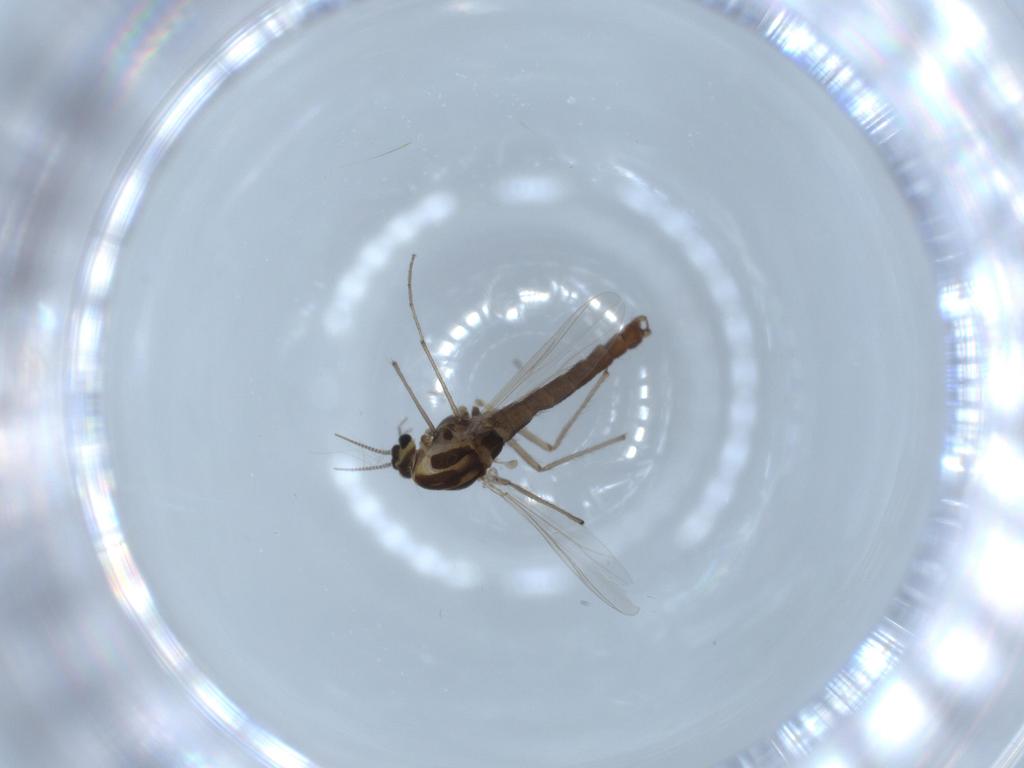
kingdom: Animalia
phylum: Arthropoda
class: Insecta
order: Diptera
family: Chironomidae
